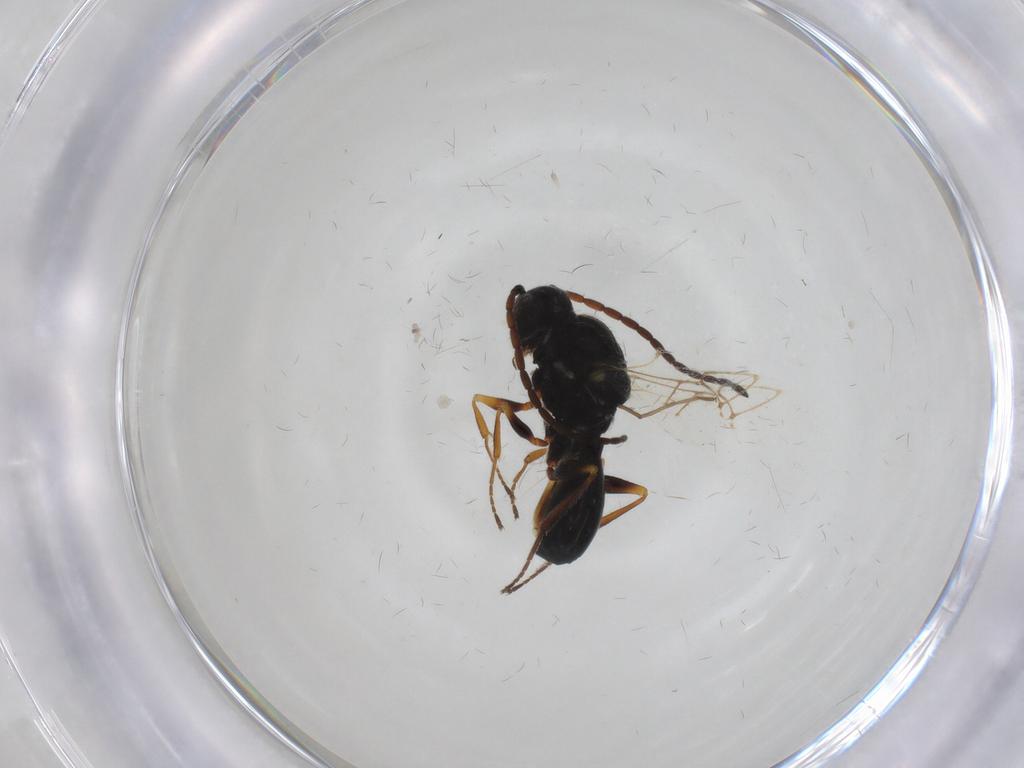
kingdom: Animalia
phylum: Arthropoda
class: Insecta
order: Hymenoptera
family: Figitidae
